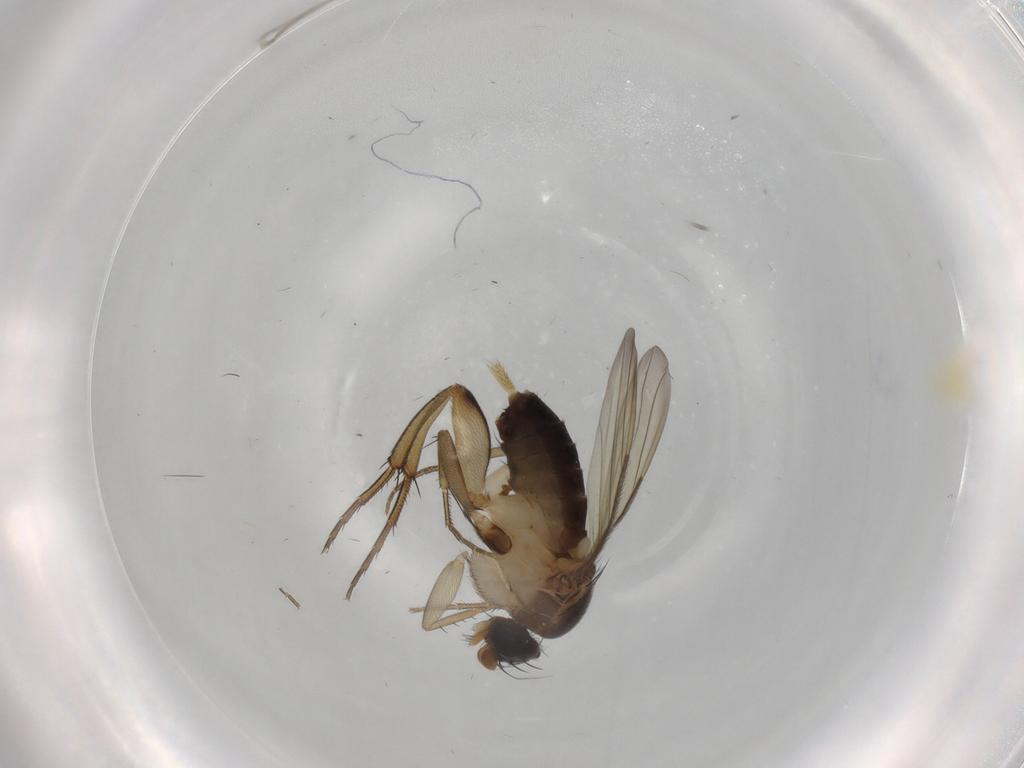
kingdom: Animalia
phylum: Arthropoda
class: Insecta
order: Diptera
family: Phoridae
